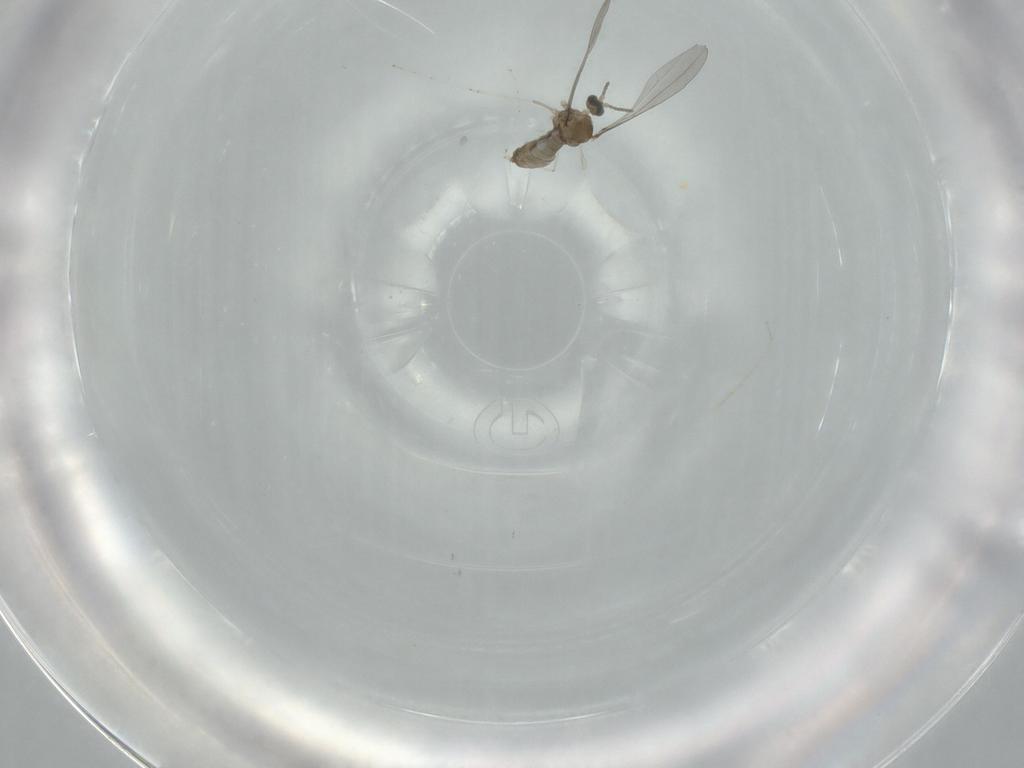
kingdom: Animalia
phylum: Arthropoda
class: Insecta
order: Diptera
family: Cecidomyiidae
